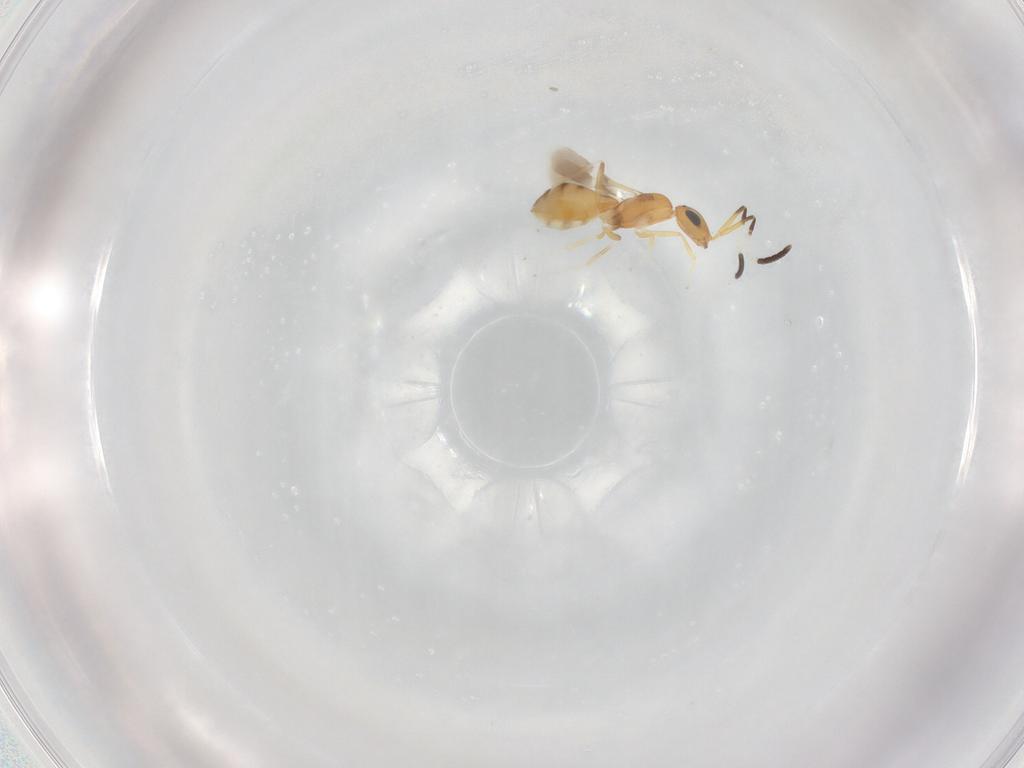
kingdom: Animalia
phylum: Arthropoda
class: Insecta
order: Hymenoptera
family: Scelionidae
